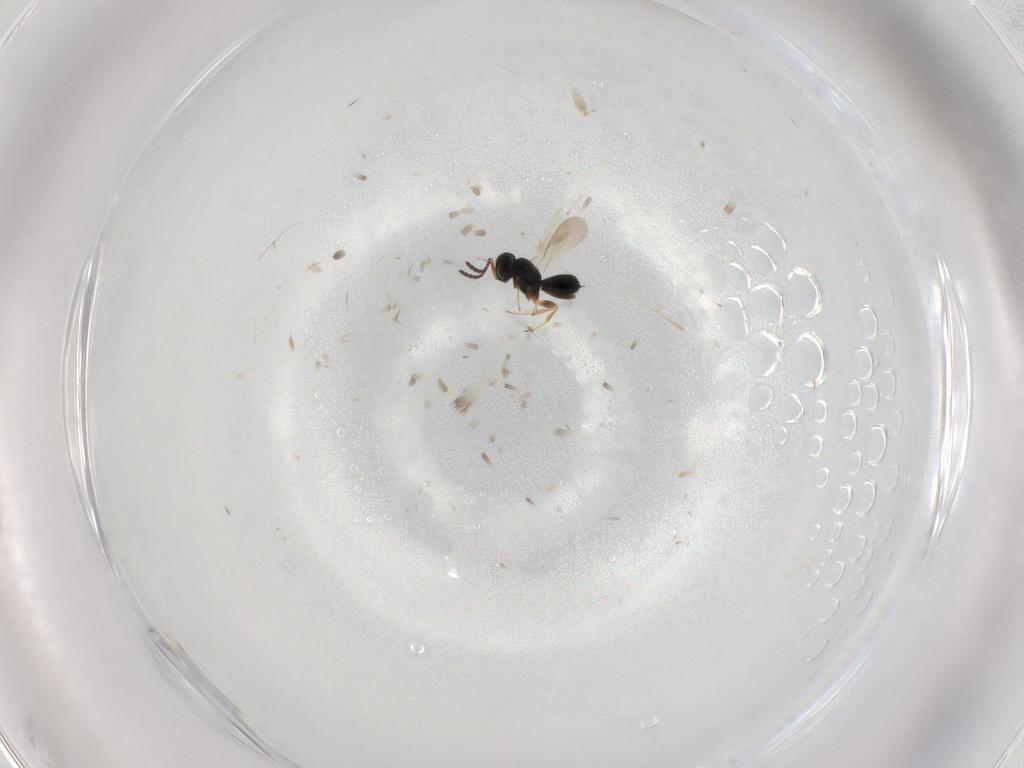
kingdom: Animalia
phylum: Arthropoda
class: Insecta
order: Hymenoptera
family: Scelionidae
